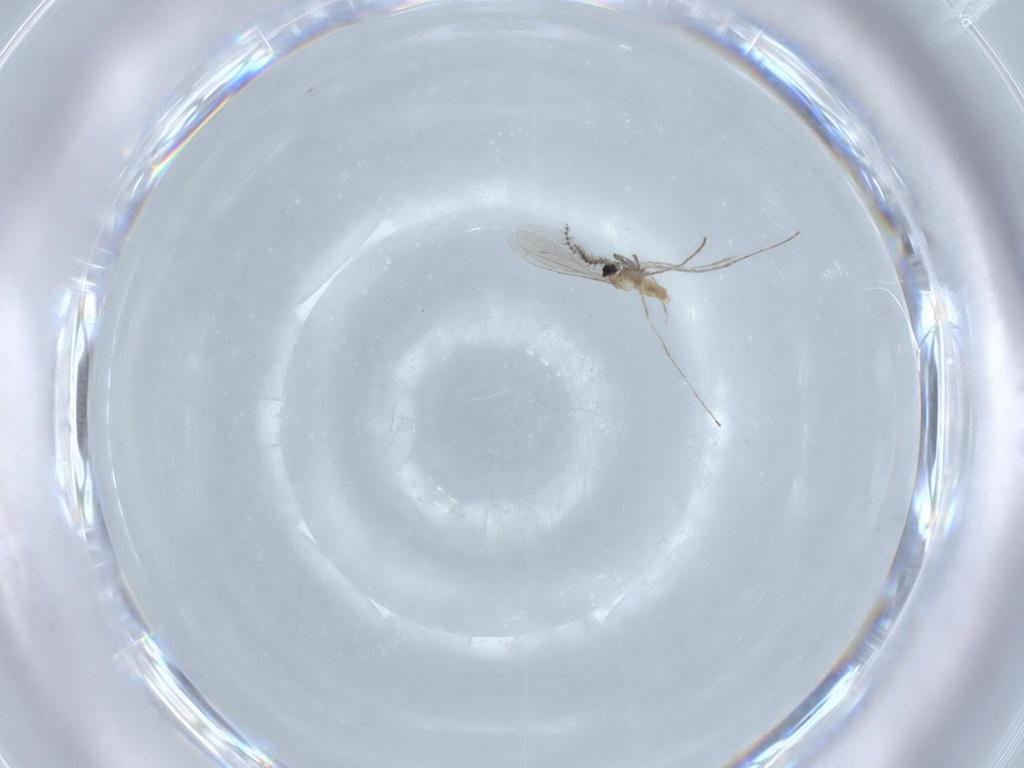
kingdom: Animalia
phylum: Arthropoda
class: Insecta
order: Diptera
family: Cecidomyiidae
